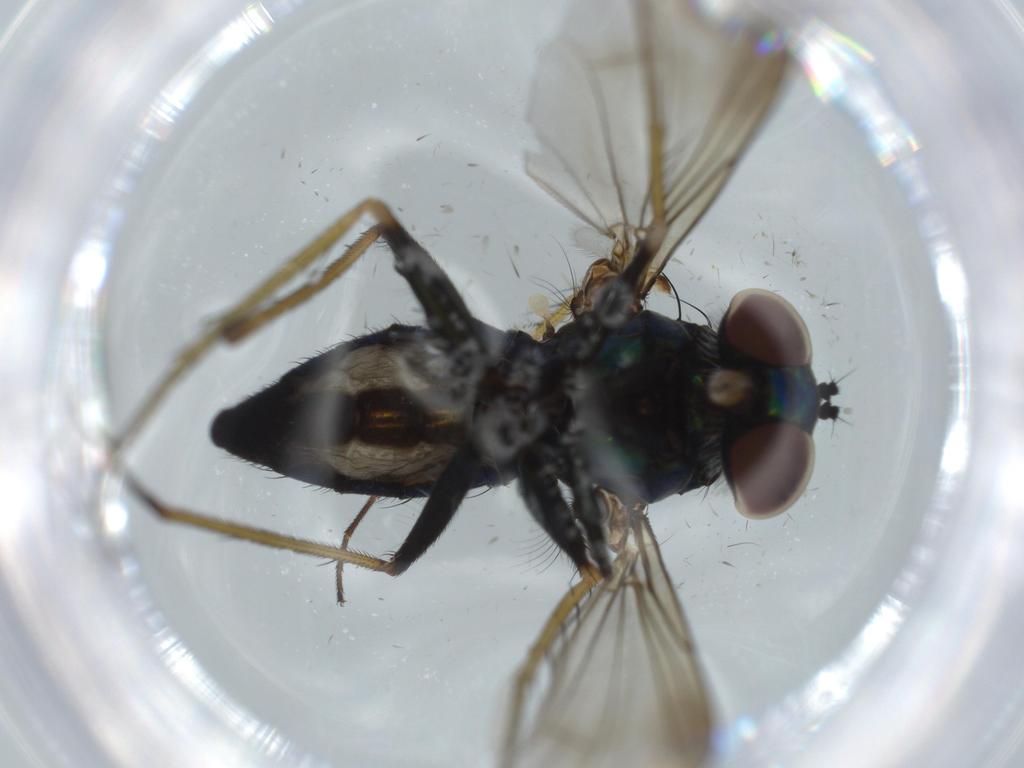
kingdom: Animalia
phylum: Arthropoda
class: Insecta
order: Diptera
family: Dolichopodidae
